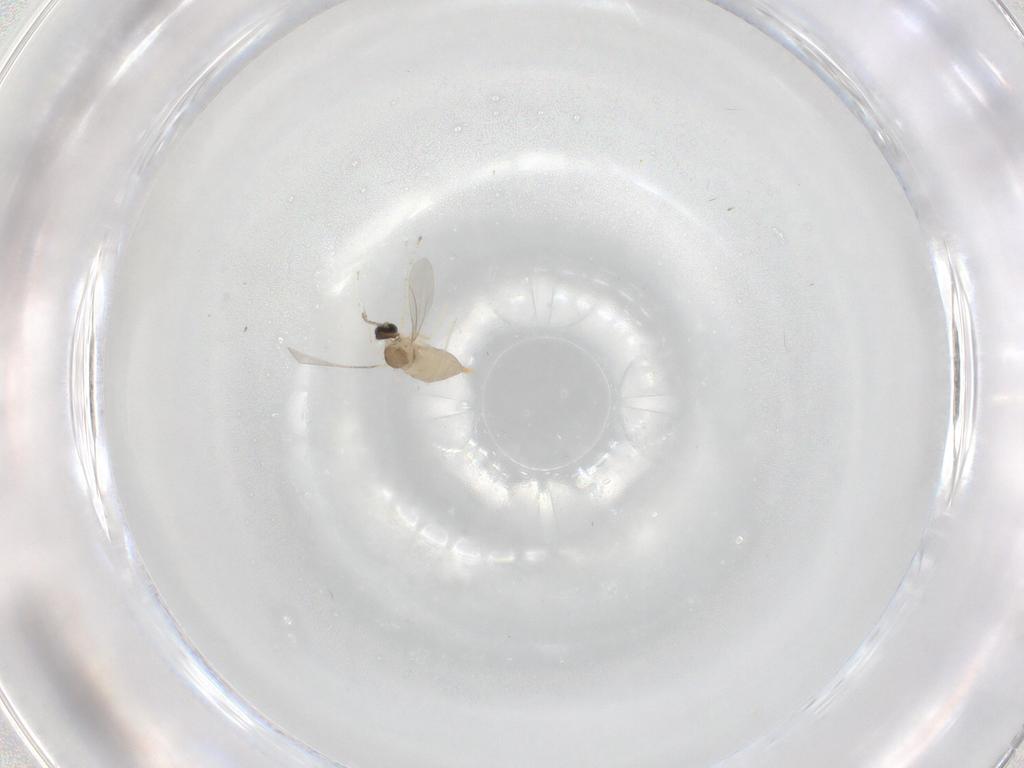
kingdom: Animalia
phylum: Arthropoda
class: Insecta
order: Diptera
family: Cecidomyiidae
